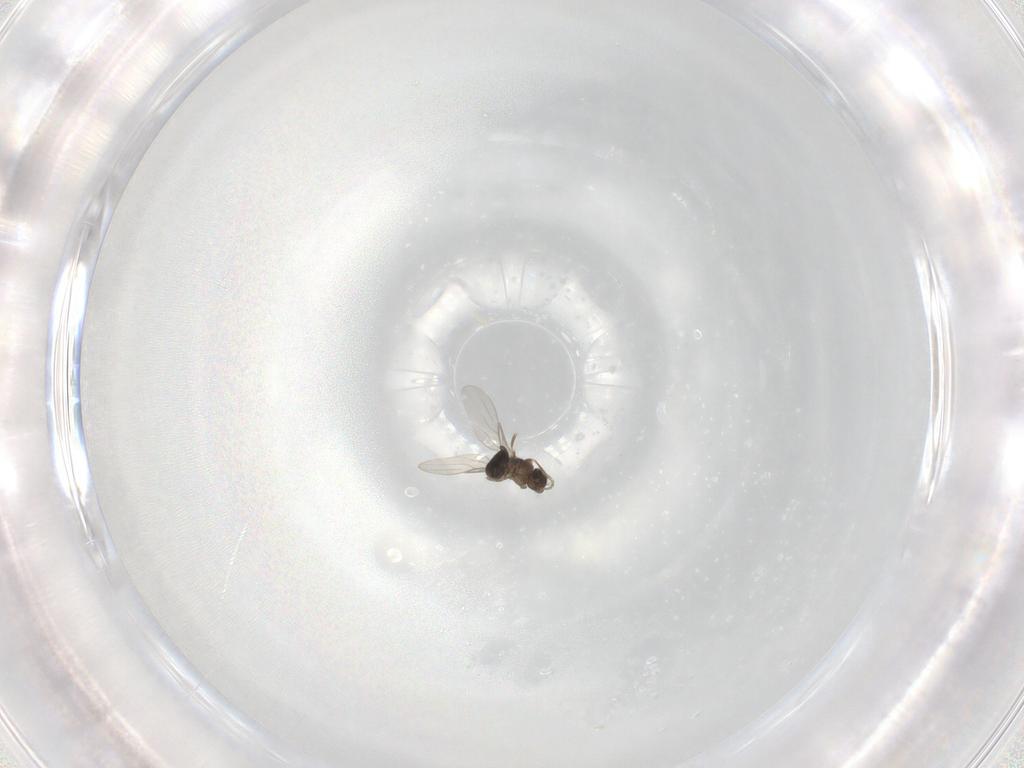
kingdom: Animalia
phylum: Arthropoda
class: Insecta
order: Diptera
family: Phoridae
